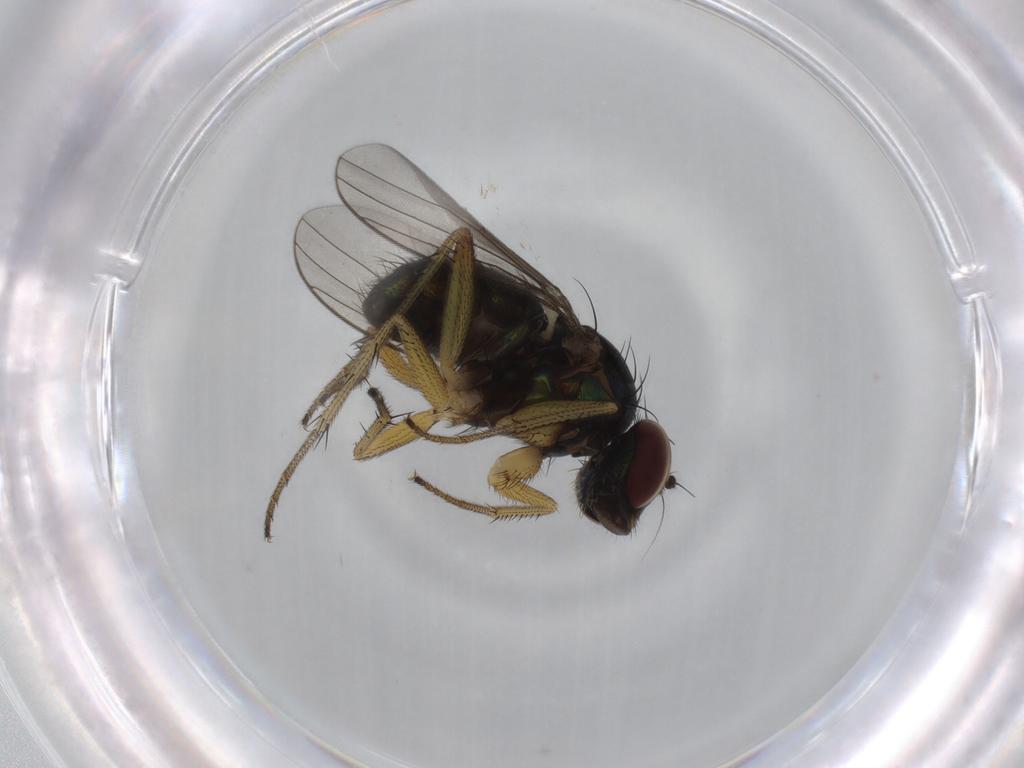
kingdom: Animalia
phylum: Arthropoda
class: Insecta
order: Diptera
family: Dolichopodidae
